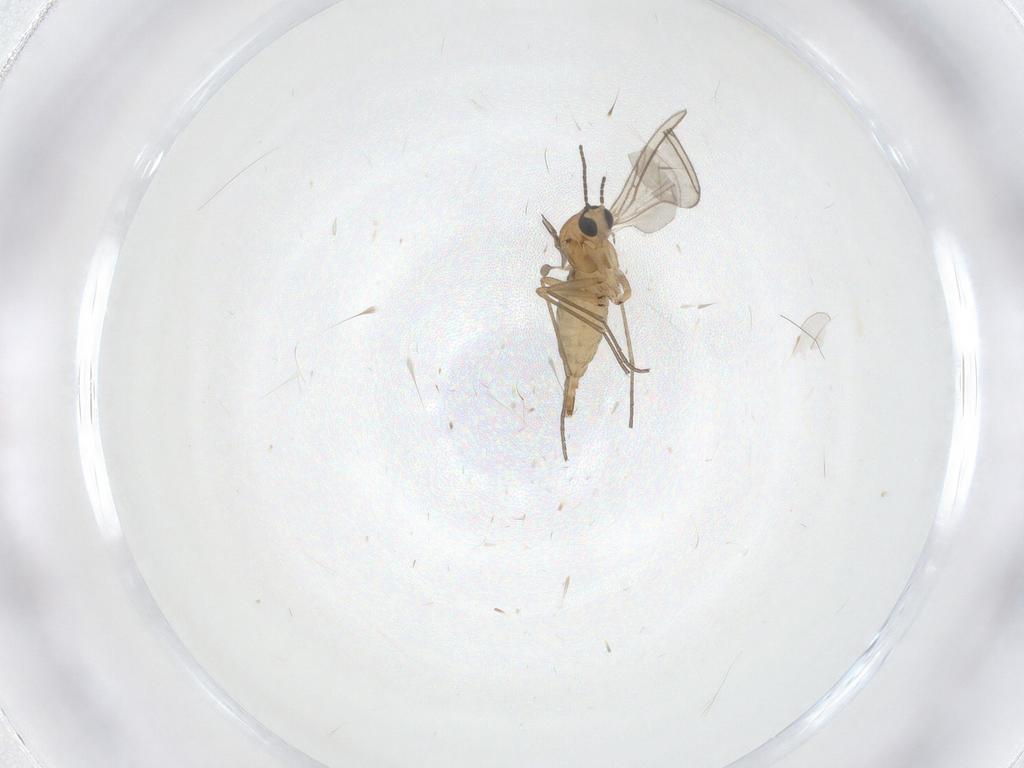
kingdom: Animalia
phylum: Arthropoda
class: Insecta
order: Diptera
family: Sciaridae
